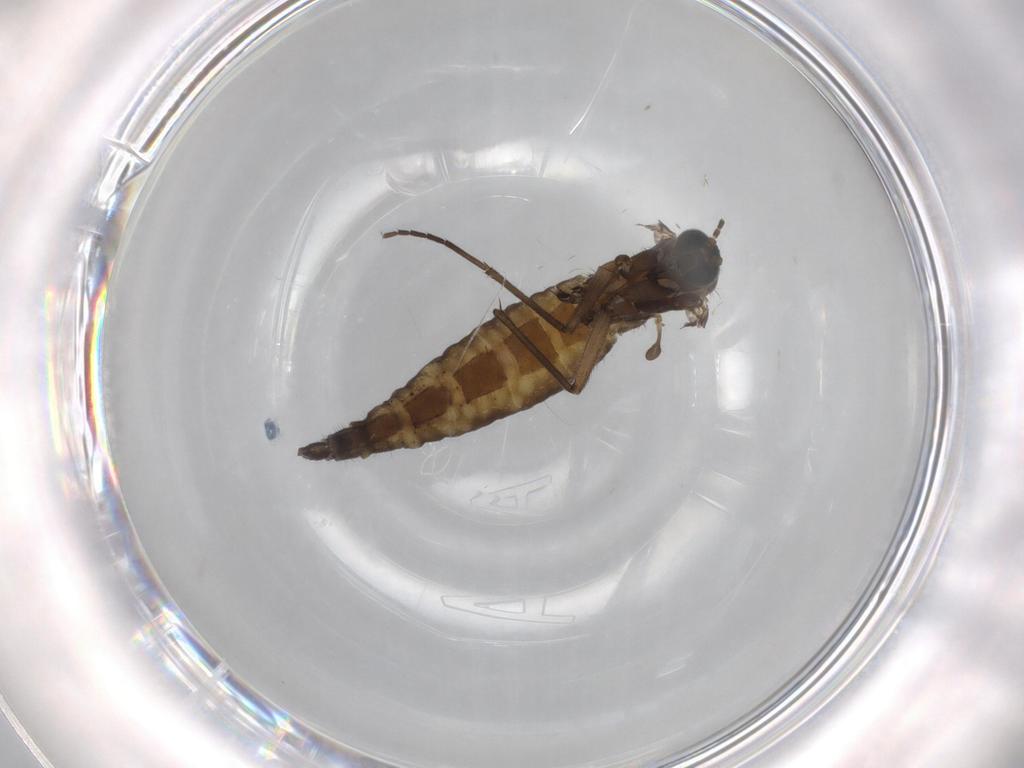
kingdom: Animalia
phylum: Arthropoda
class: Insecta
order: Diptera
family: Sciaridae
